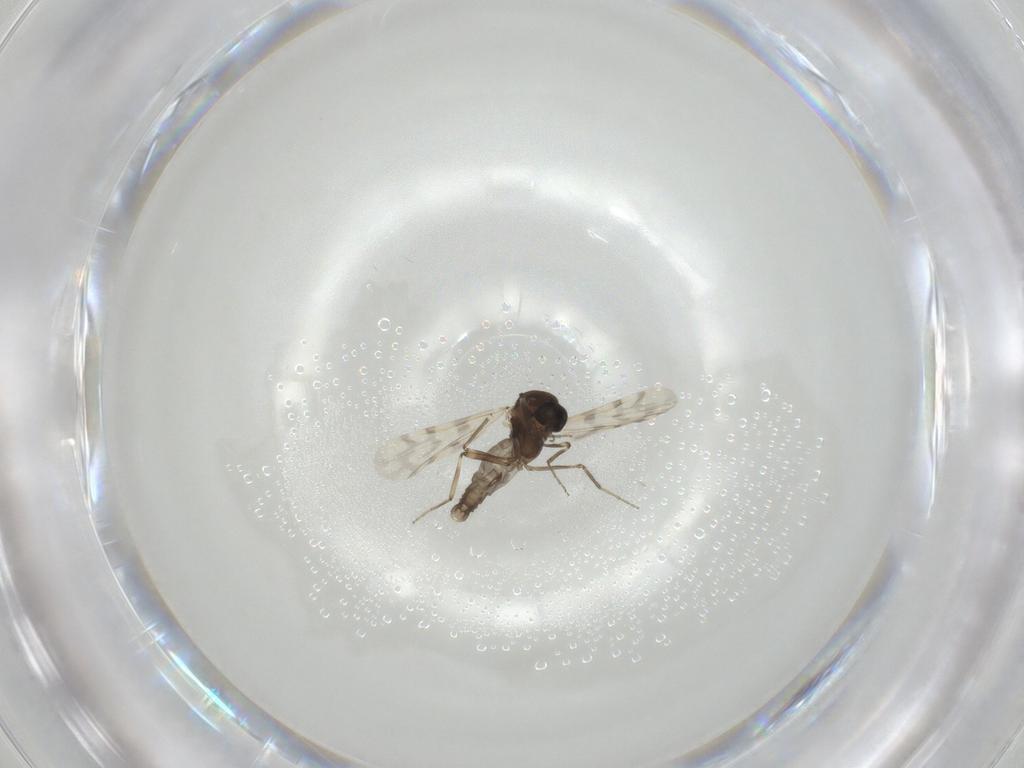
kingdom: Animalia
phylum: Arthropoda
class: Insecta
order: Diptera
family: Ceratopogonidae
